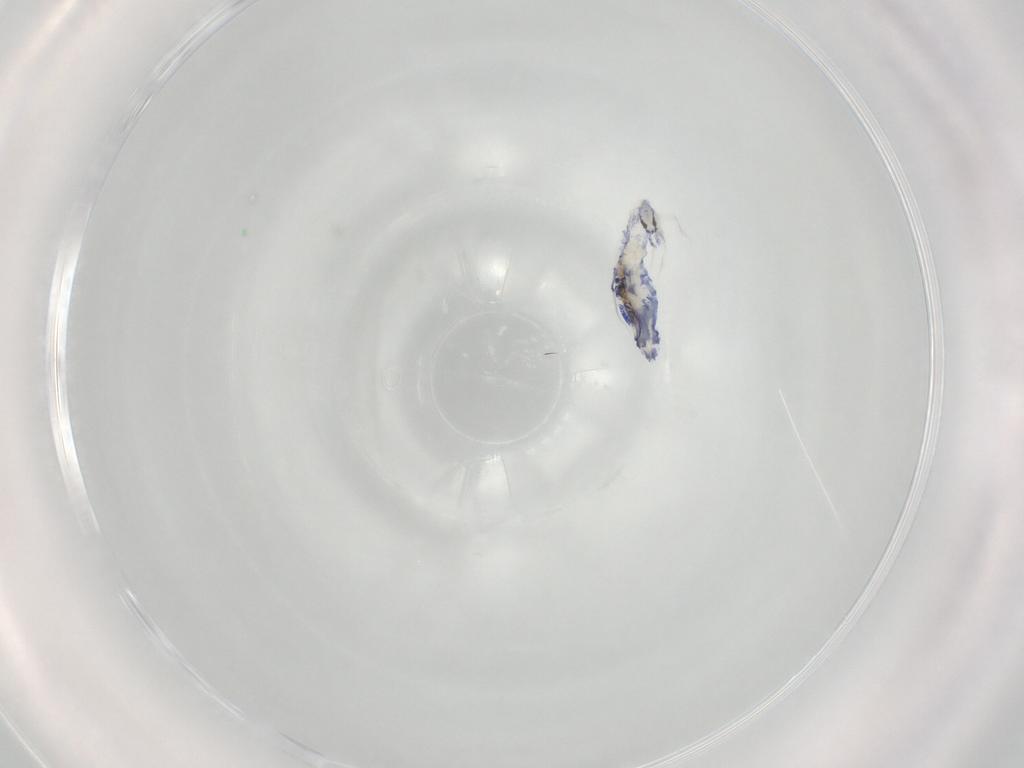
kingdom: Animalia
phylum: Arthropoda
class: Collembola
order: Entomobryomorpha
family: Entomobryidae
